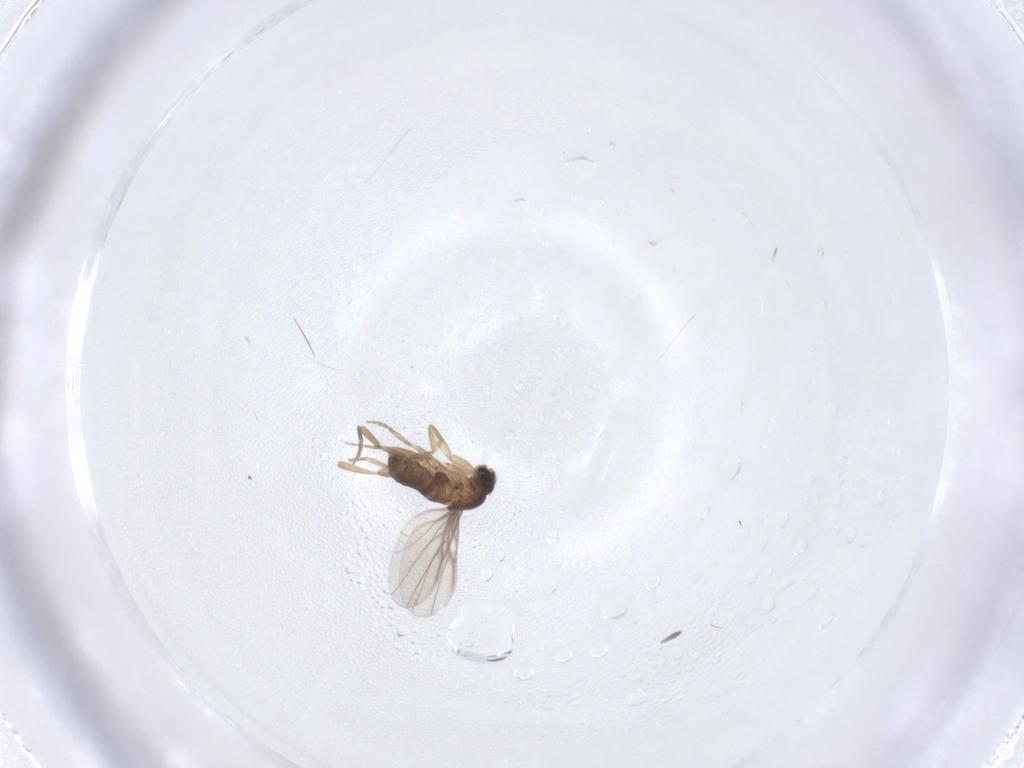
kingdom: Animalia
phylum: Arthropoda
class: Insecta
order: Diptera
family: Phoridae
